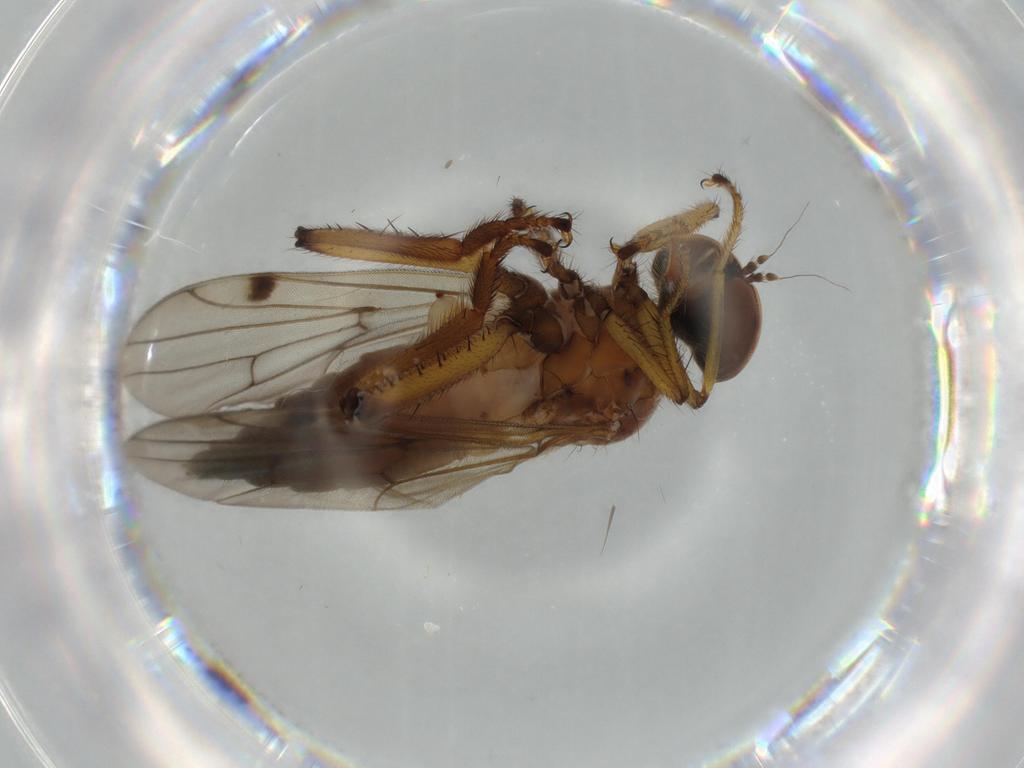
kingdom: Animalia
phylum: Arthropoda
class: Insecta
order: Diptera
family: Hybotidae
